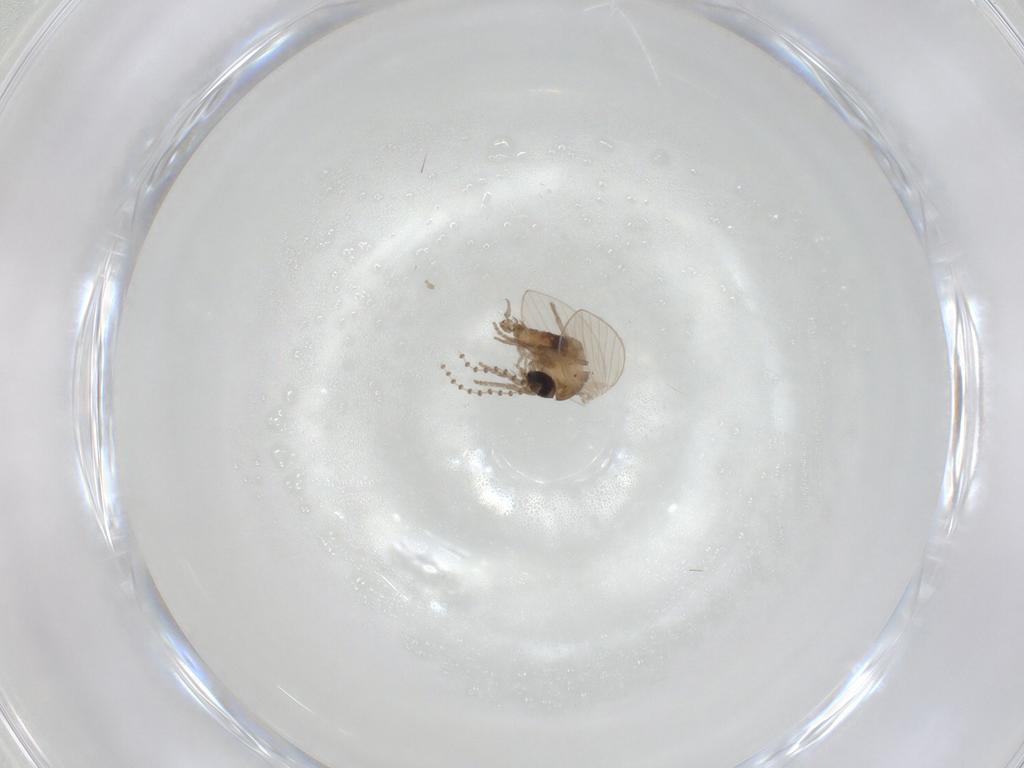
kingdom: Animalia
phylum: Arthropoda
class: Insecta
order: Diptera
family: Psychodidae
